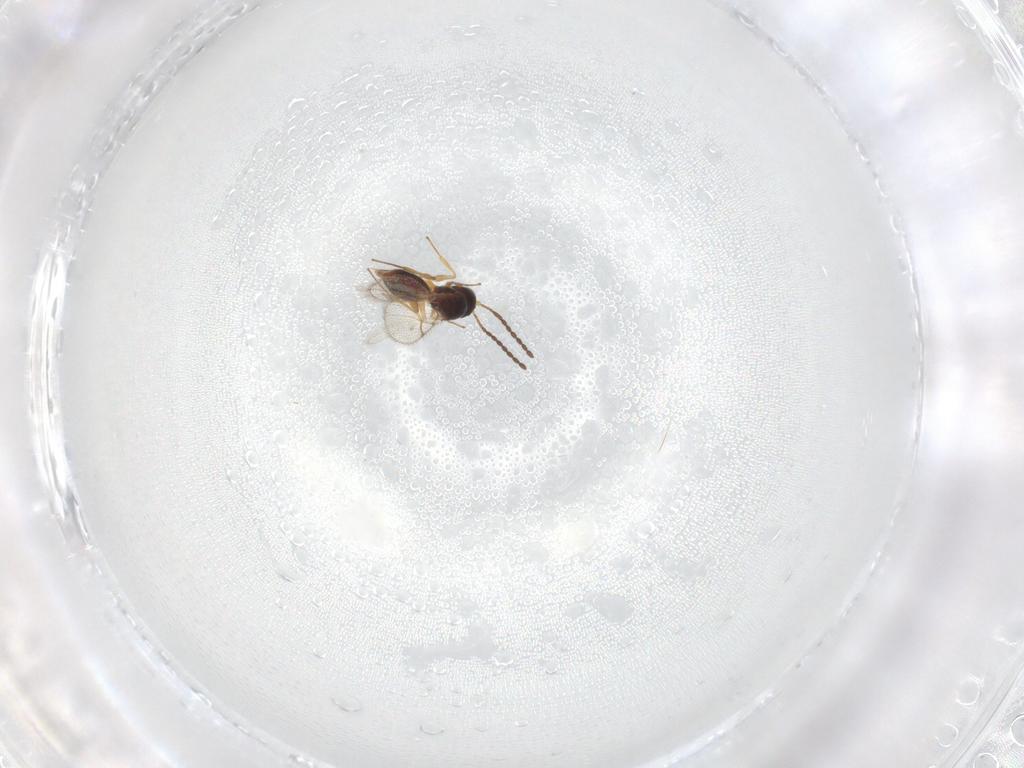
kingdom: Animalia
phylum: Arthropoda
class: Insecta
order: Hymenoptera
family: Figitidae
